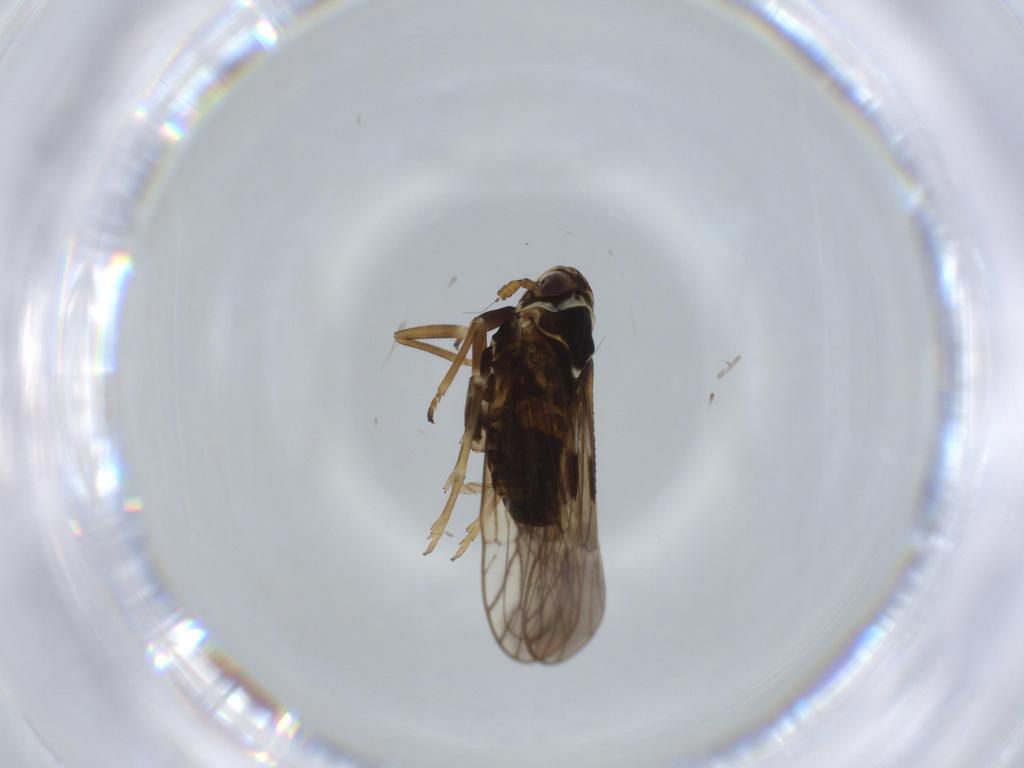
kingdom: Animalia
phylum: Arthropoda
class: Insecta
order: Hemiptera
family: Delphacidae
